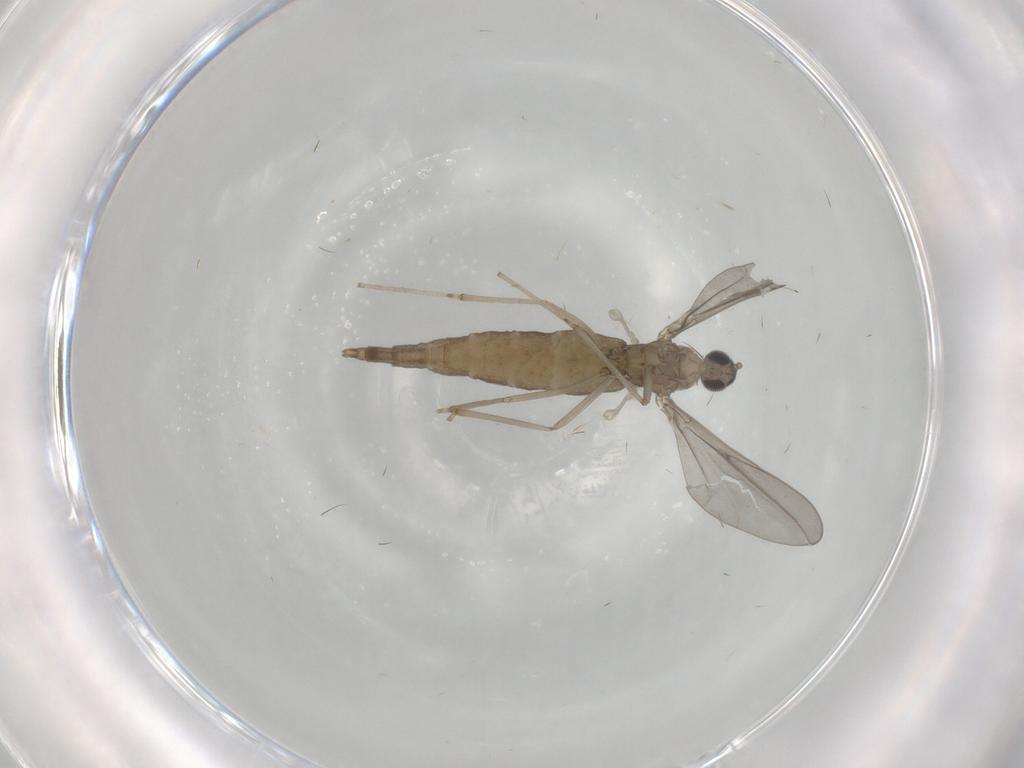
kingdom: Animalia
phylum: Arthropoda
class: Insecta
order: Diptera
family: Cecidomyiidae
